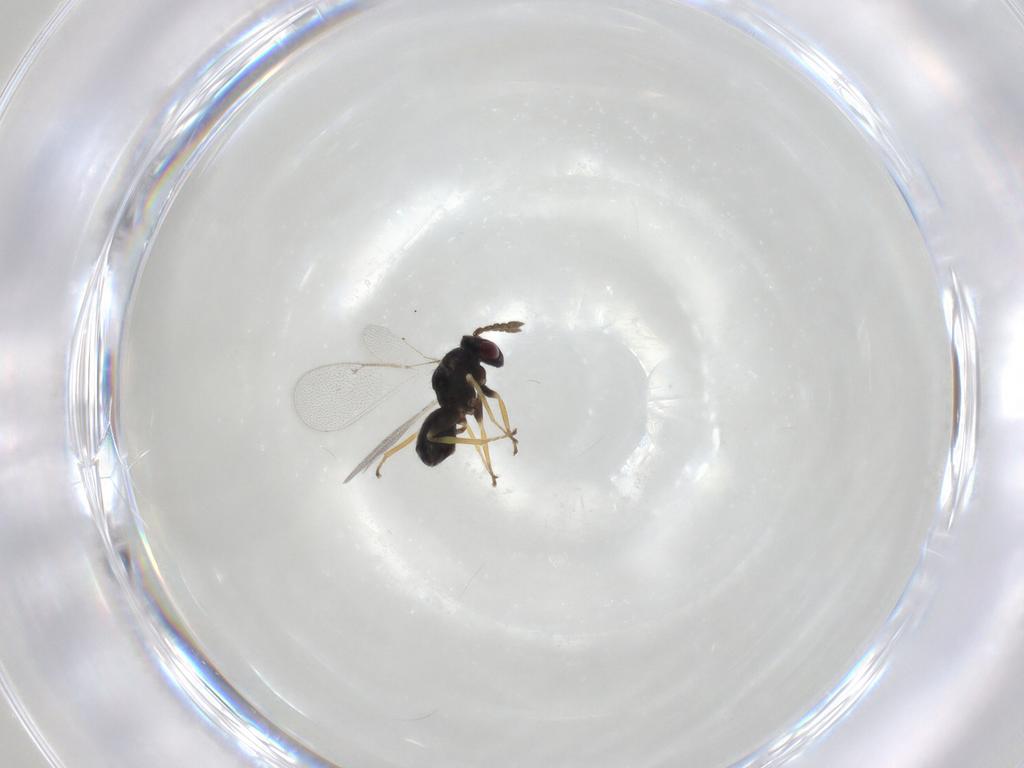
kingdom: Animalia
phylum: Arthropoda
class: Insecta
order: Hymenoptera
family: Eulophidae
